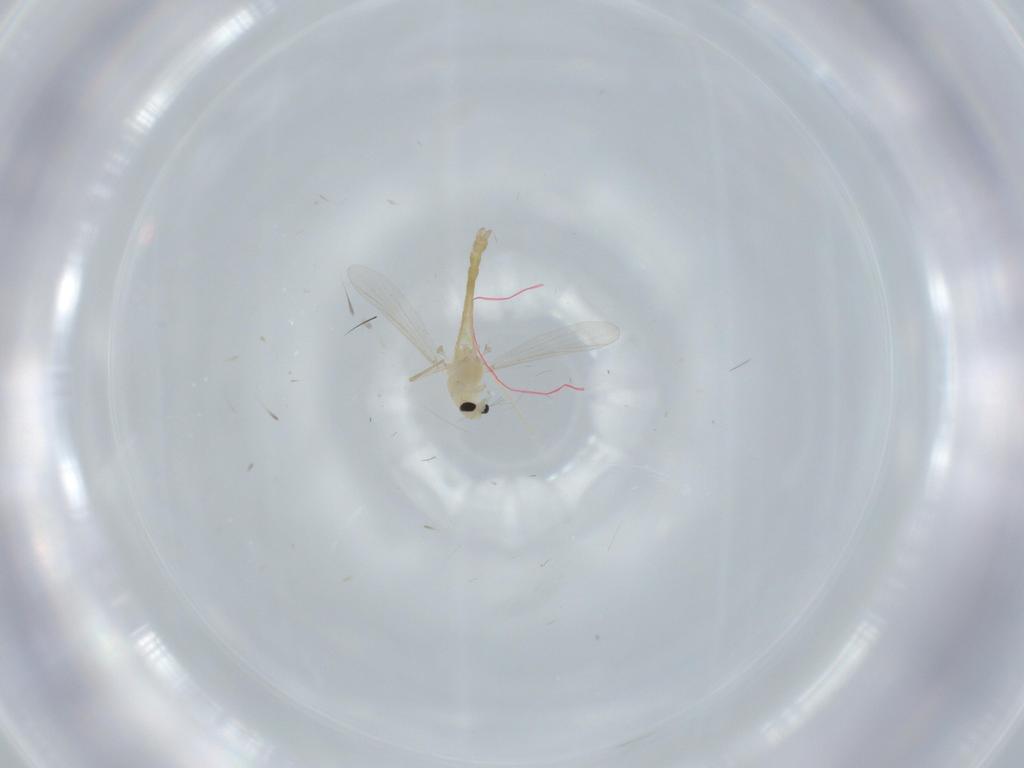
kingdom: Animalia
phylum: Arthropoda
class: Insecta
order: Diptera
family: Chironomidae
